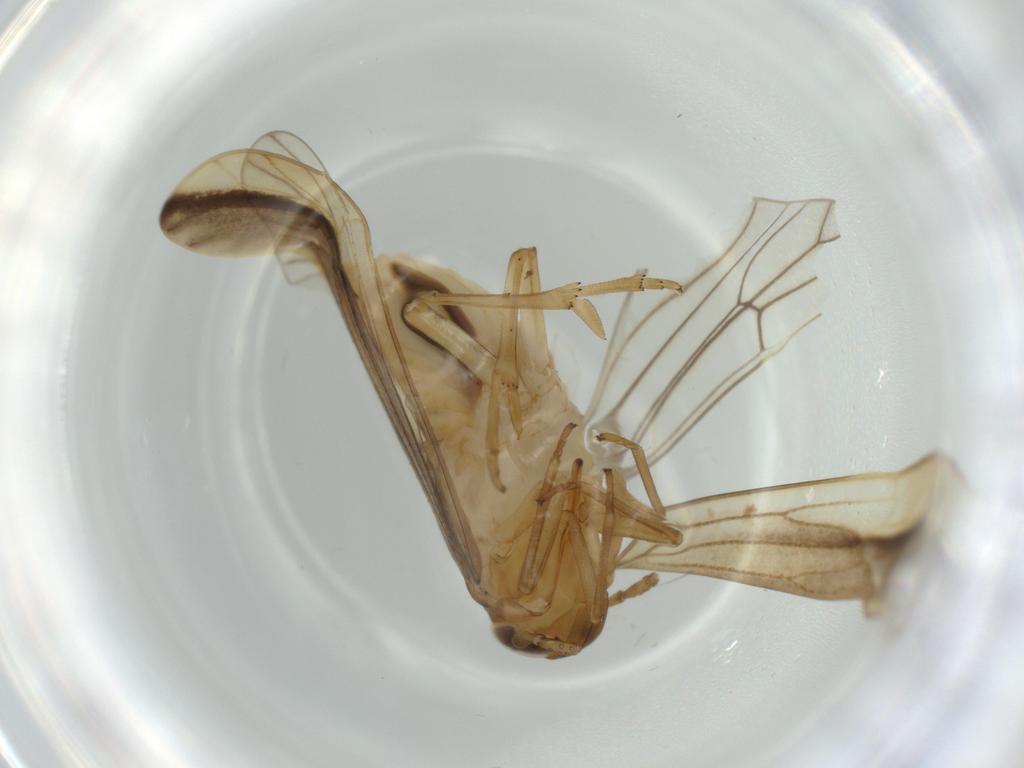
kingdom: Animalia
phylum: Arthropoda
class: Insecta
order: Hemiptera
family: Delphacidae
